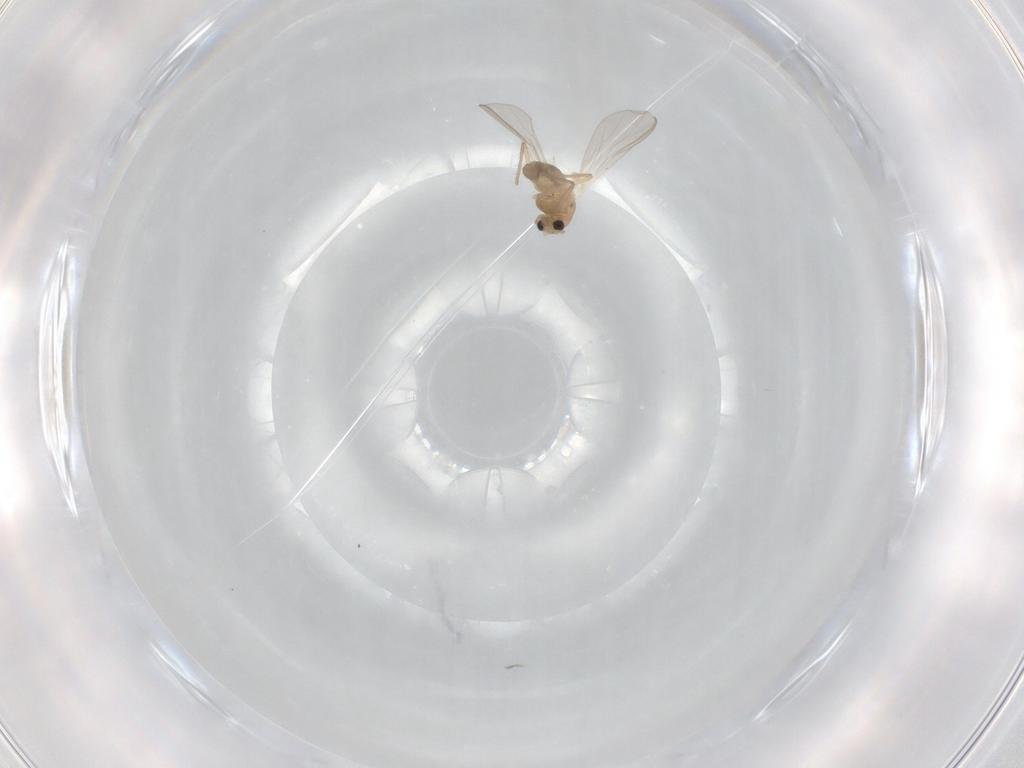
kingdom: Animalia
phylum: Arthropoda
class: Insecta
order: Diptera
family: Chironomidae
